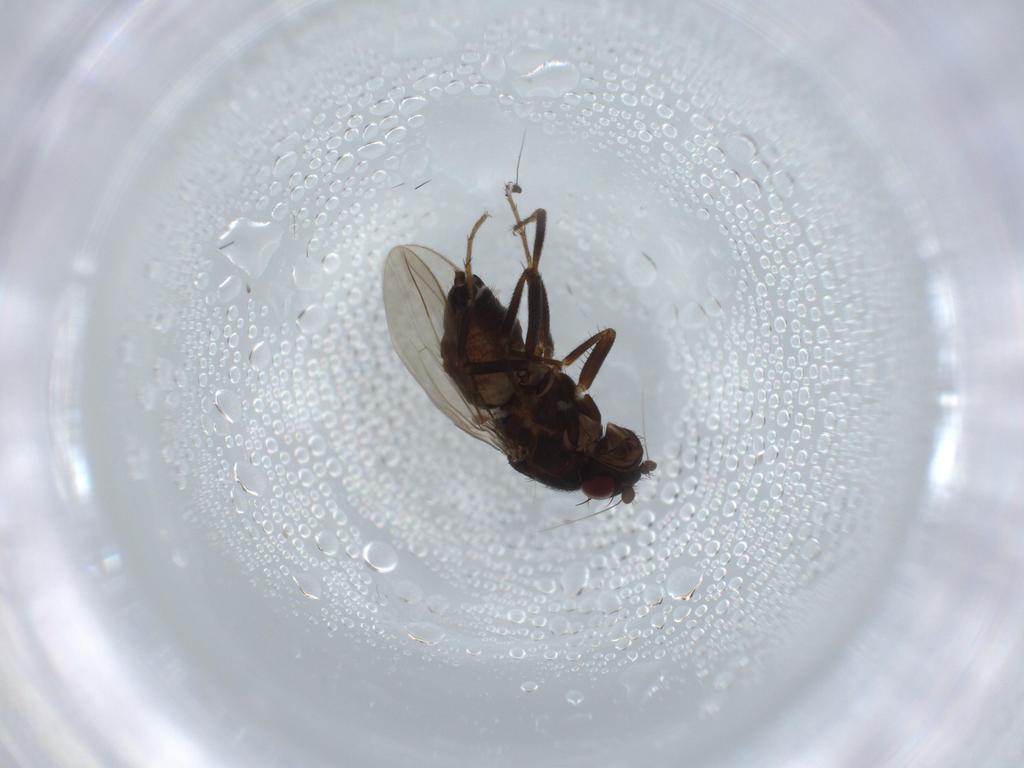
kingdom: Animalia
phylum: Arthropoda
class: Insecta
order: Diptera
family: Sphaeroceridae
